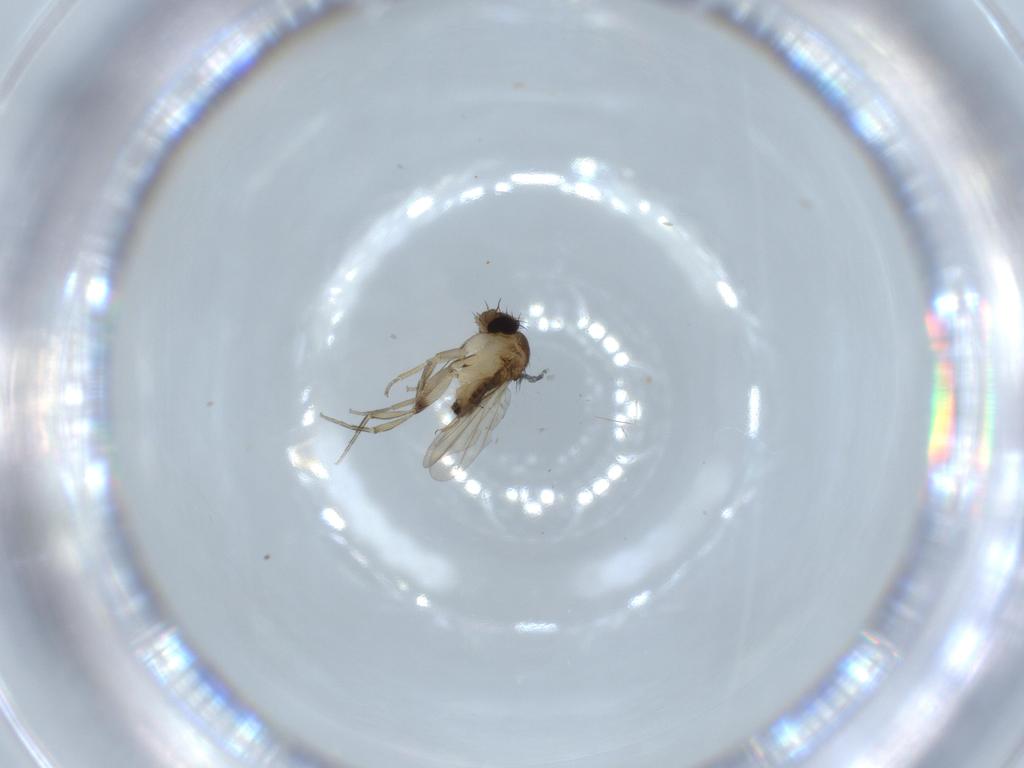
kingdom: Animalia
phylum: Arthropoda
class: Insecta
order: Diptera
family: Phoridae
